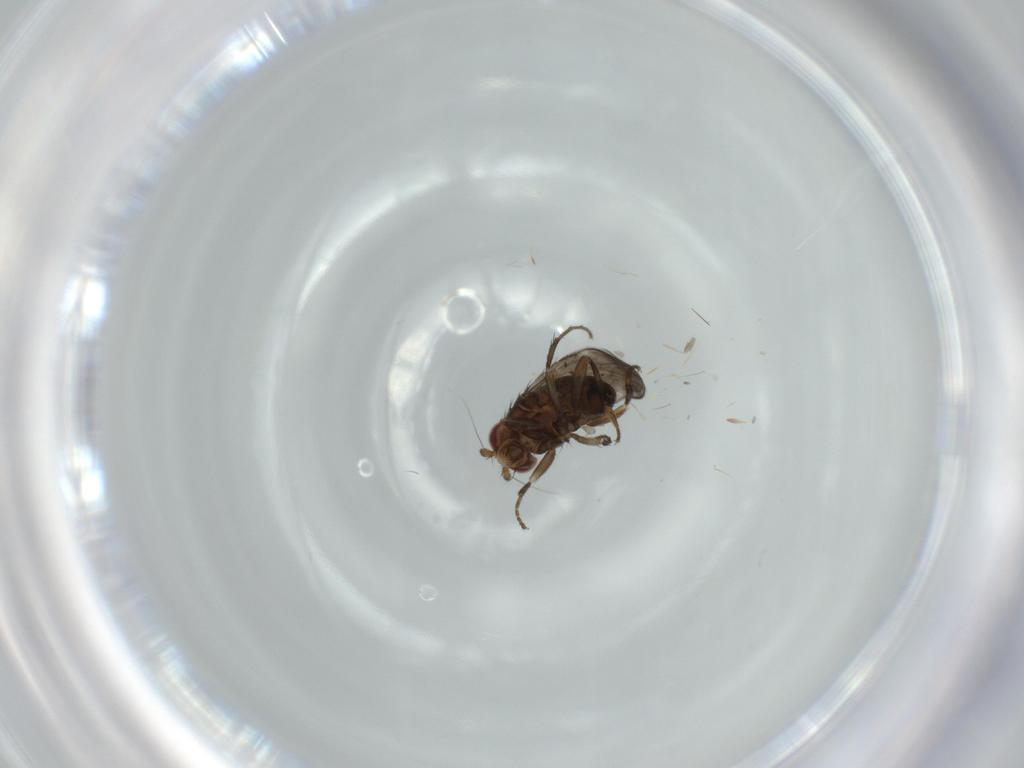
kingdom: Animalia
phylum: Arthropoda
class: Insecta
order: Diptera
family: Sphaeroceridae
